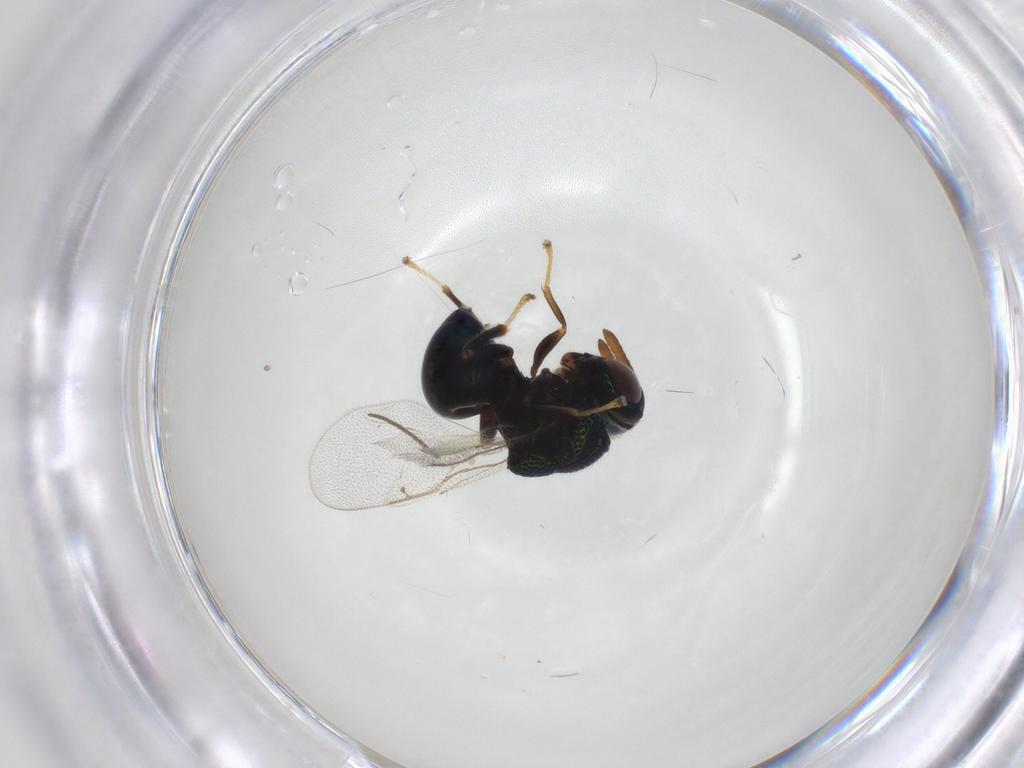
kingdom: Animalia
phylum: Arthropoda
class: Insecta
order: Hymenoptera
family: Perilampidae
